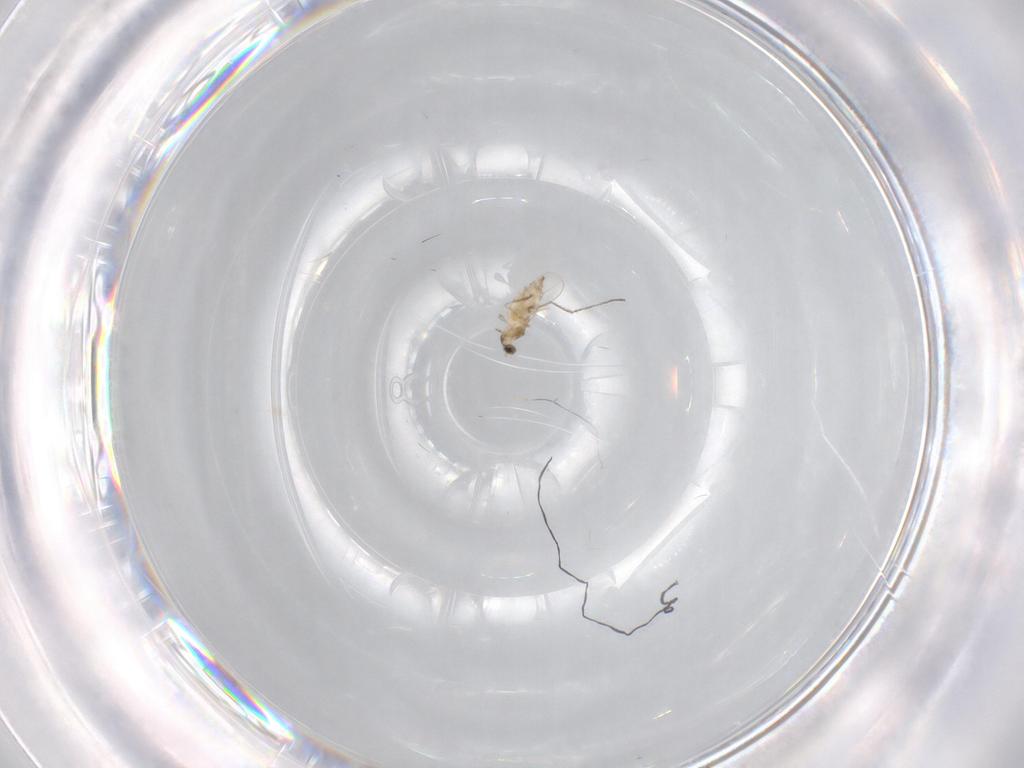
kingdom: Animalia
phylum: Arthropoda
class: Insecta
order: Diptera
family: Cecidomyiidae
